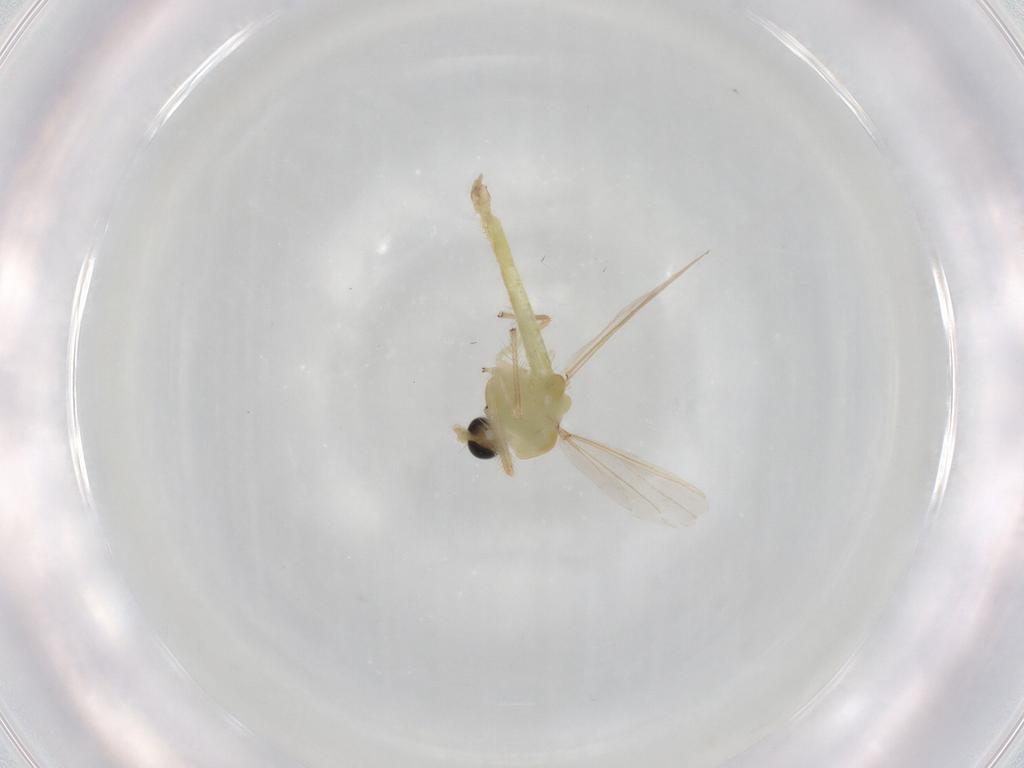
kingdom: Animalia
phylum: Arthropoda
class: Insecta
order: Diptera
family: Chironomidae
